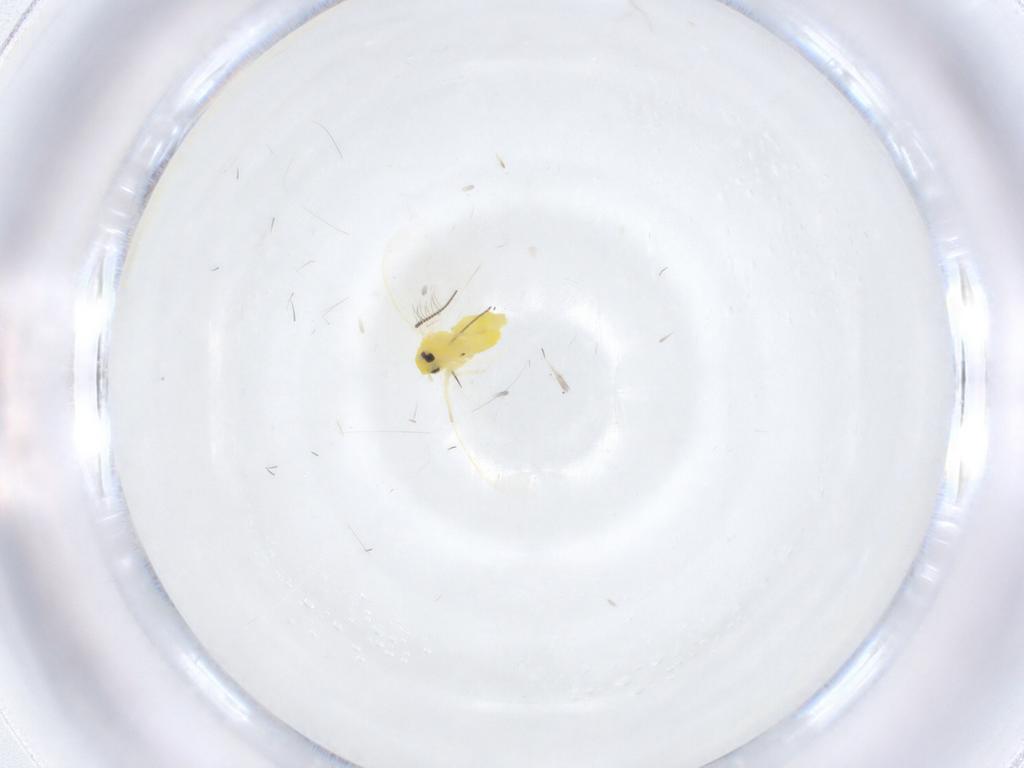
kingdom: Animalia
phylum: Arthropoda
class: Insecta
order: Hemiptera
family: Aleyrodidae
